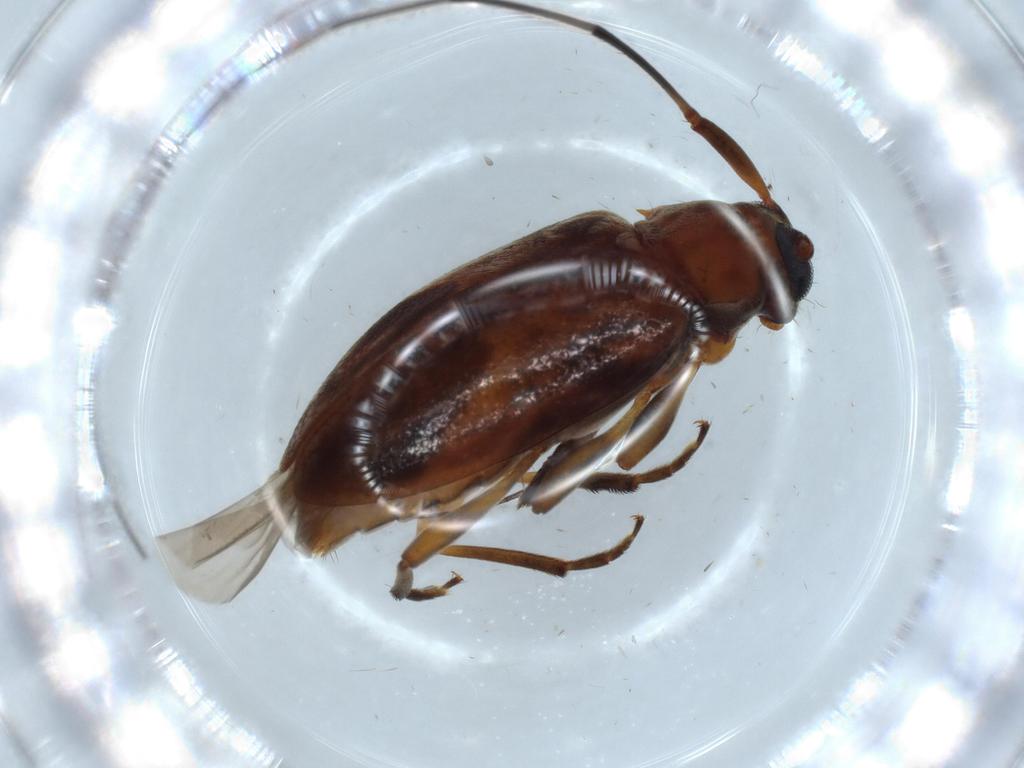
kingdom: Animalia
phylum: Arthropoda
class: Insecta
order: Coleoptera
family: Cerambycidae
